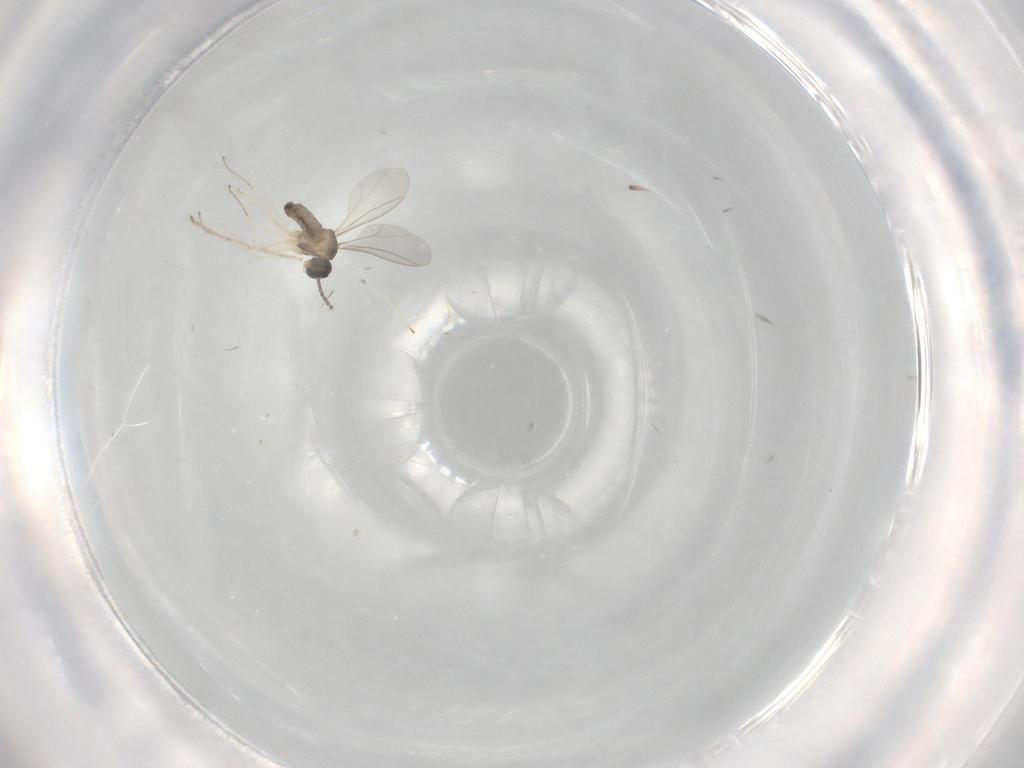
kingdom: Animalia
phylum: Arthropoda
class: Insecta
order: Diptera
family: Cecidomyiidae
